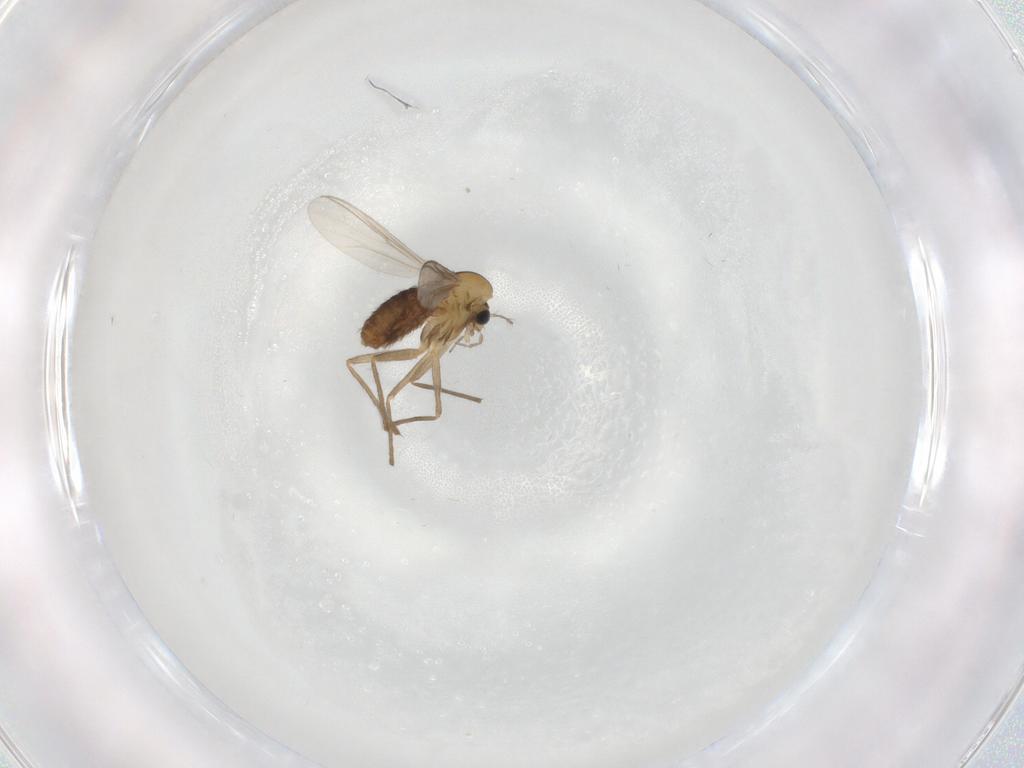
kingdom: Animalia
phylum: Arthropoda
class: Insecta
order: Diptera
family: Chironomidae
